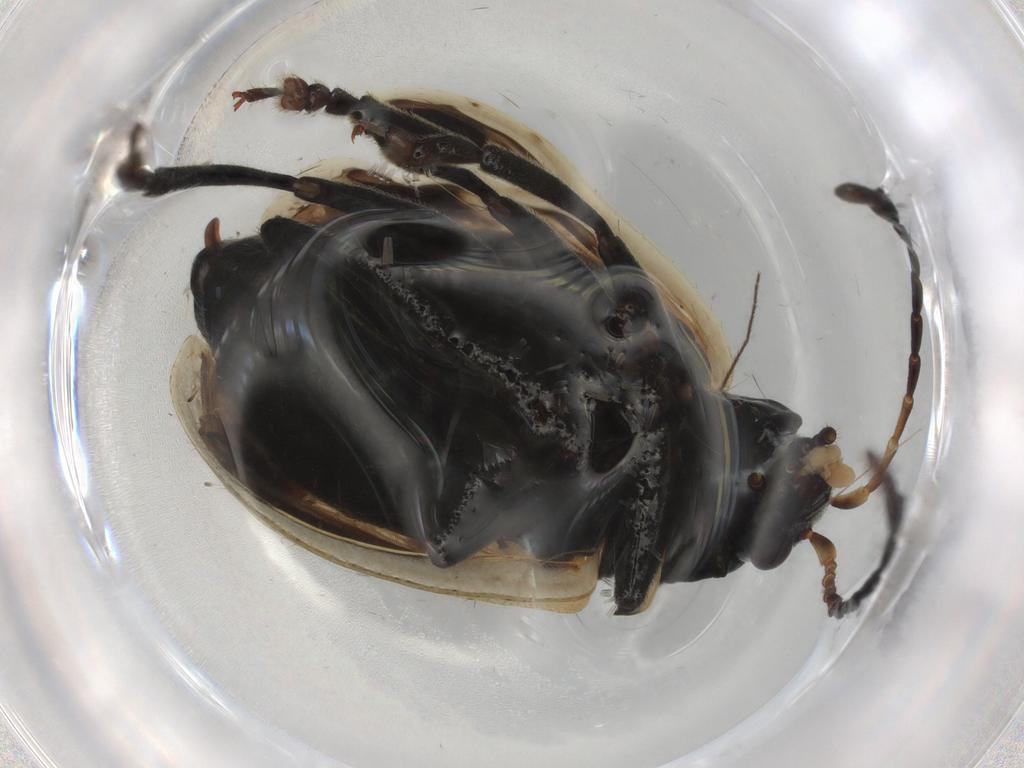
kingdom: Animalia
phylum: Arthropoda
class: Insecta
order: Coleoptera
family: Chrysomelidae
